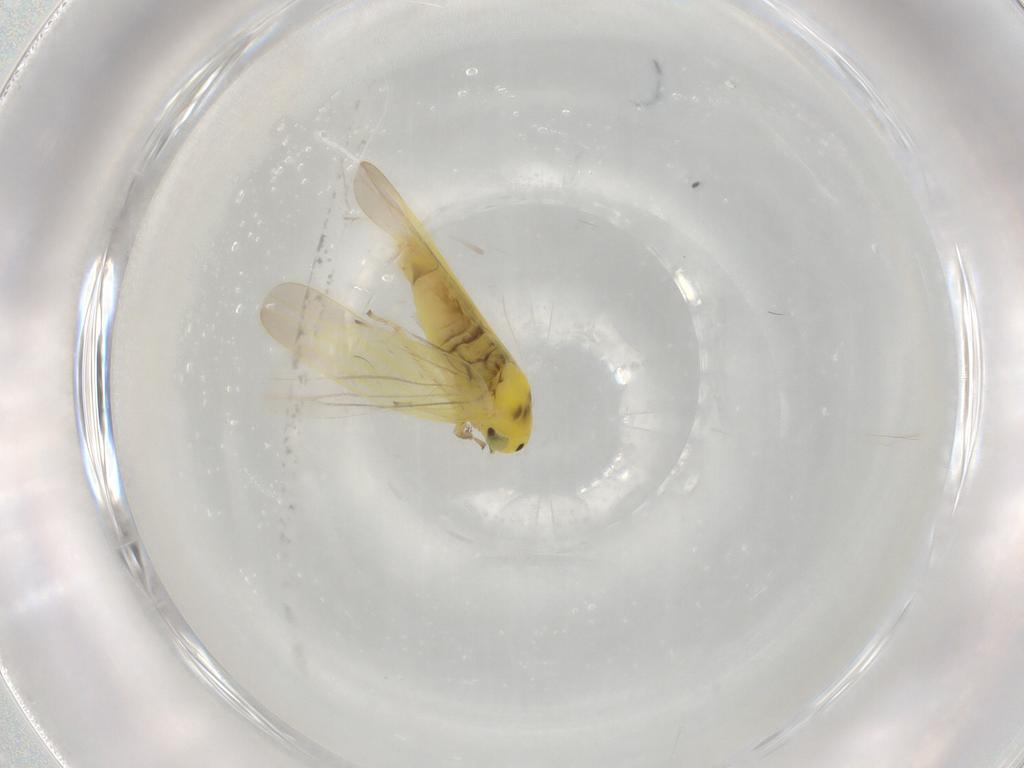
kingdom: Animalia
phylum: Arthropoda
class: Insecta
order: Hemiptera
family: Cicadellidae
